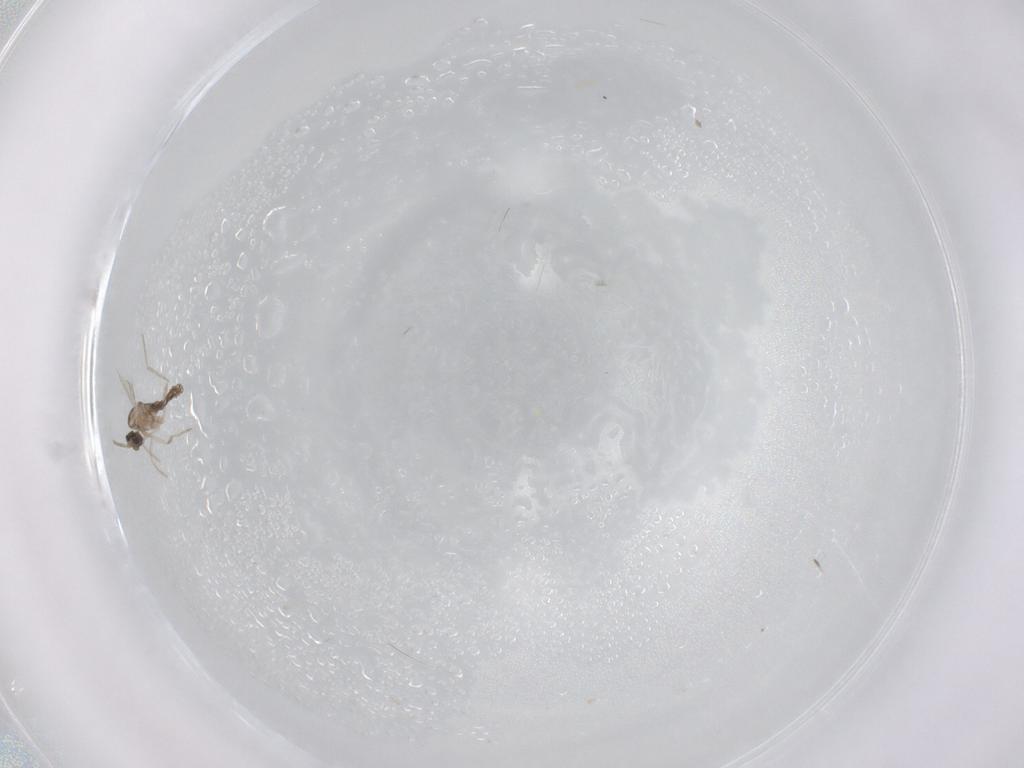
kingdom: Animalia
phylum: Arthropoda
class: Insecta
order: Diptera
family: Cecidomyiidae
